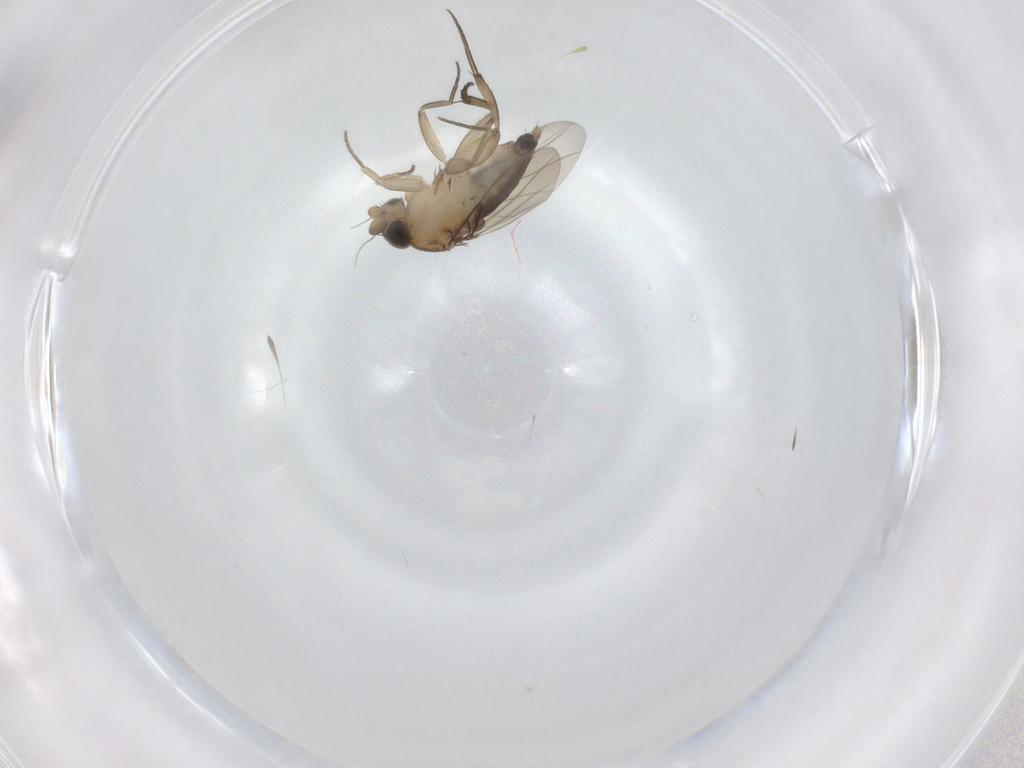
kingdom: Animalia
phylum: Arthropoda
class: Insecta
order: Diptera
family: Phoridae
